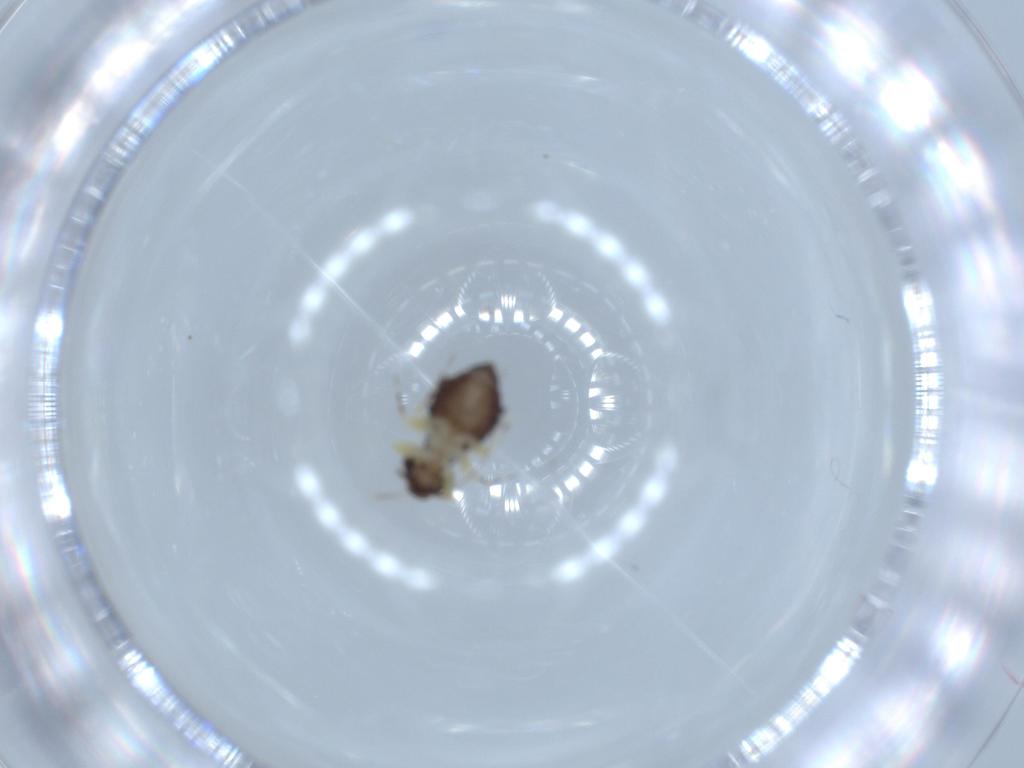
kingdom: Animalia
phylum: Arthropoda
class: Insecta
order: Psocodea
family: Psoquillidae
